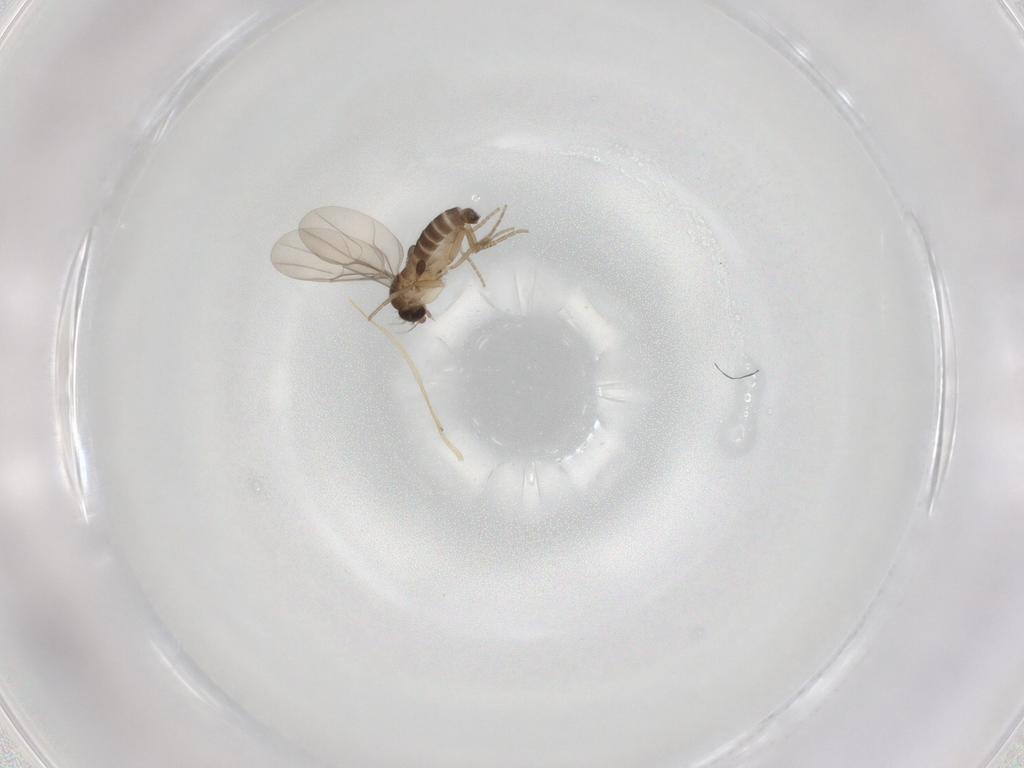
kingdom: Animalia
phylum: Arthropoda
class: Insecta
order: Diptera
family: Phoridae
